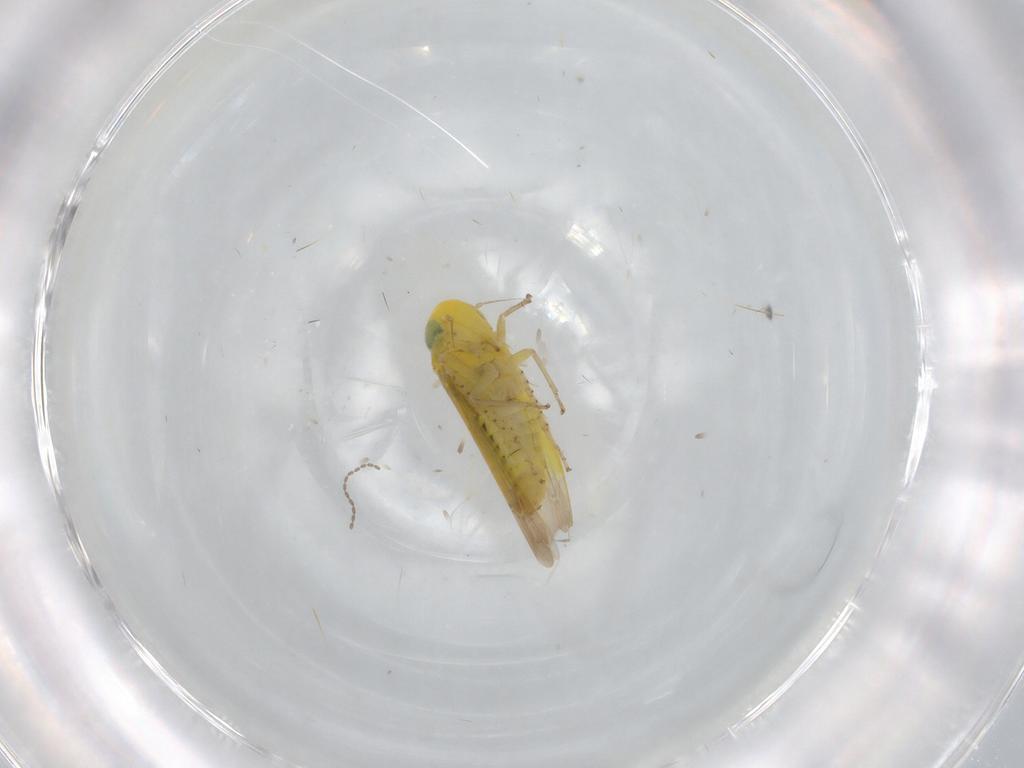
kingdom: Animalia
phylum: Arthropoda
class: Insecta
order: Hemiptera
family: Cicadellidae
